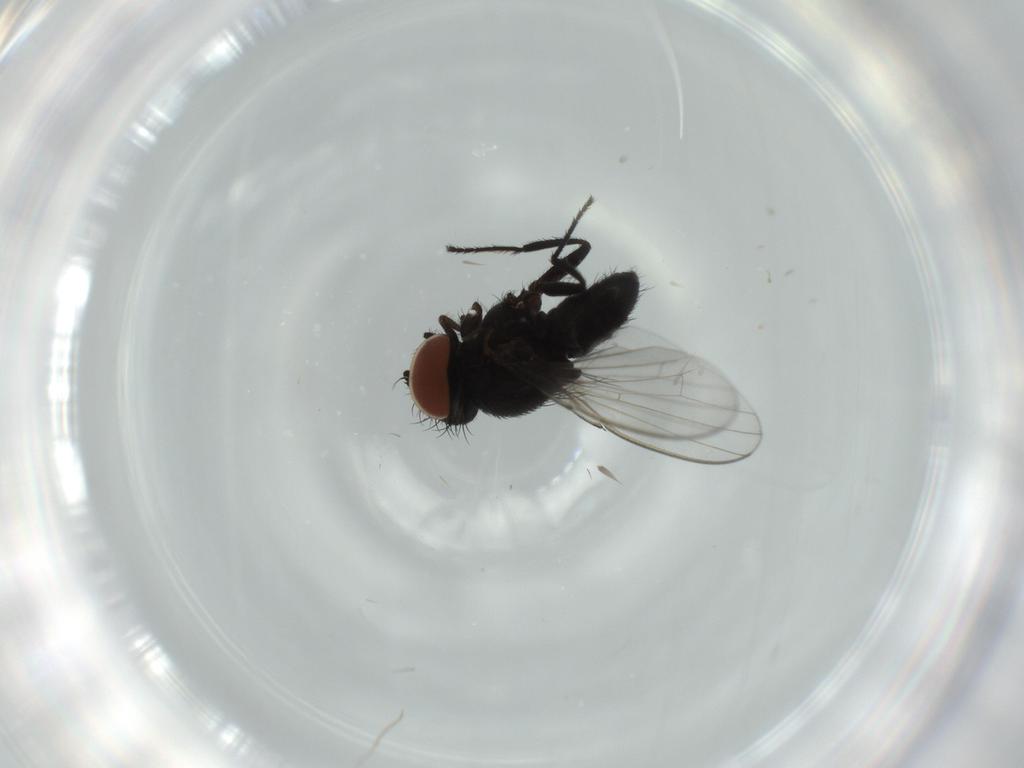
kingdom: Animalia
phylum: Arthropoda
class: Insecta
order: Diptera
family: Milichiidae
